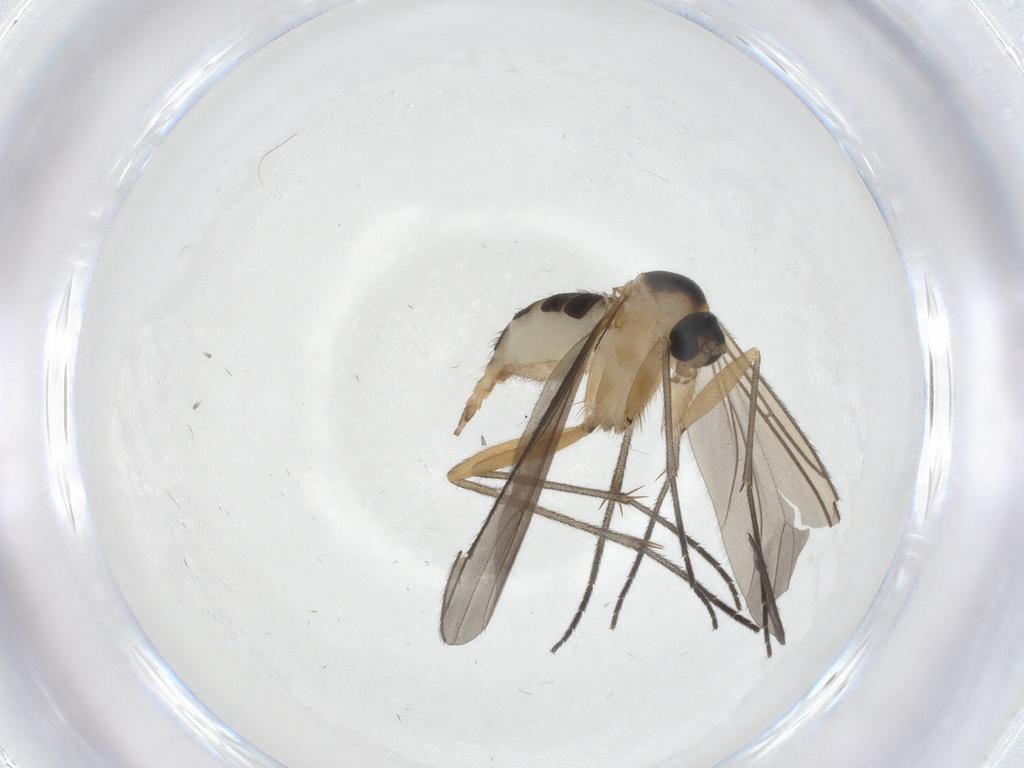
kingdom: Animalia
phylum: Arthropoda
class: Insecta
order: Diptera
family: Sciaridae
